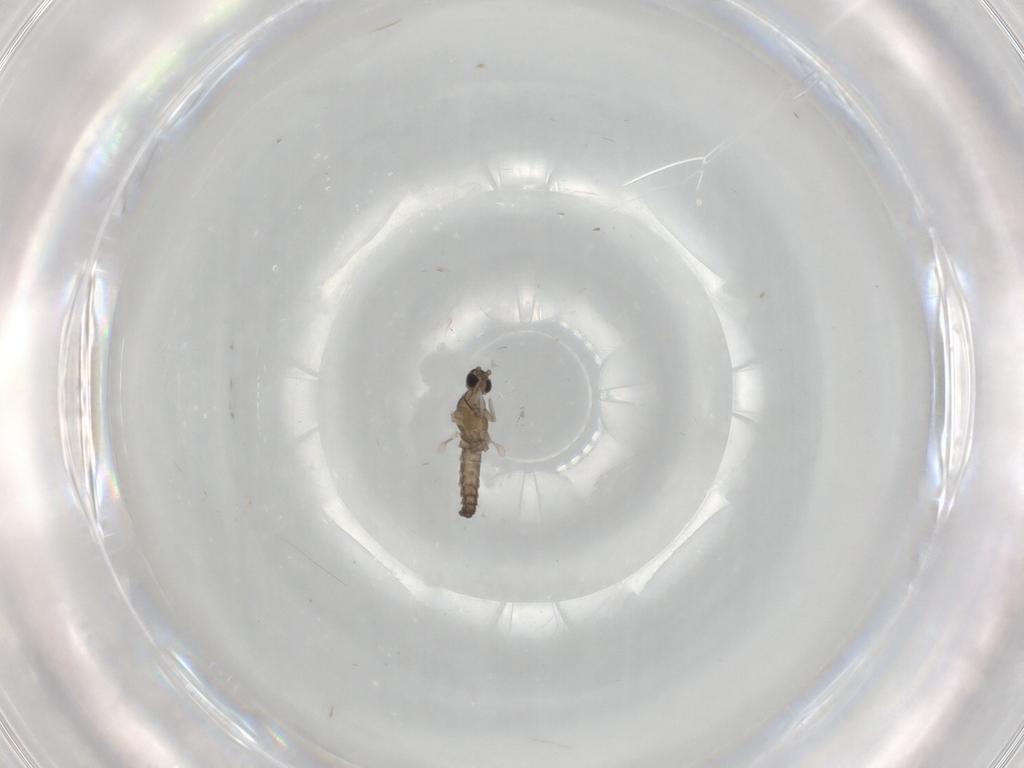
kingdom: Animalia
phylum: Arthropoda
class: Insecta
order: Diptera
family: Cecidomyiidae
